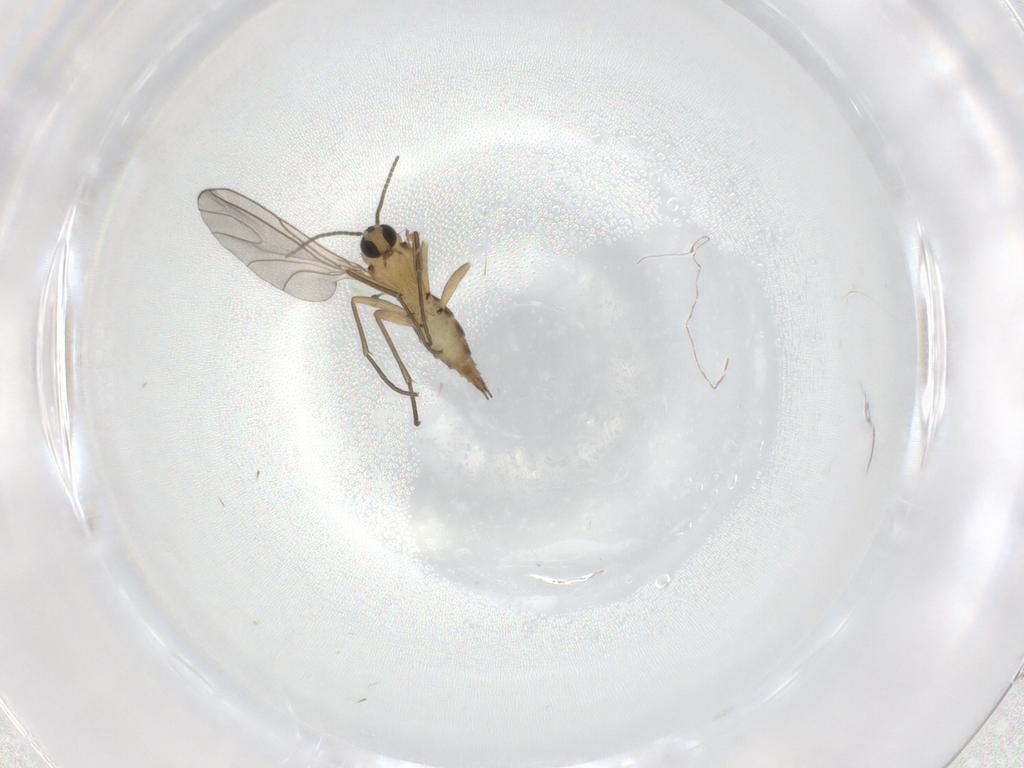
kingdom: Animalia
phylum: Arthropoda
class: Insecta
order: Diptera
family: Sciaridae
